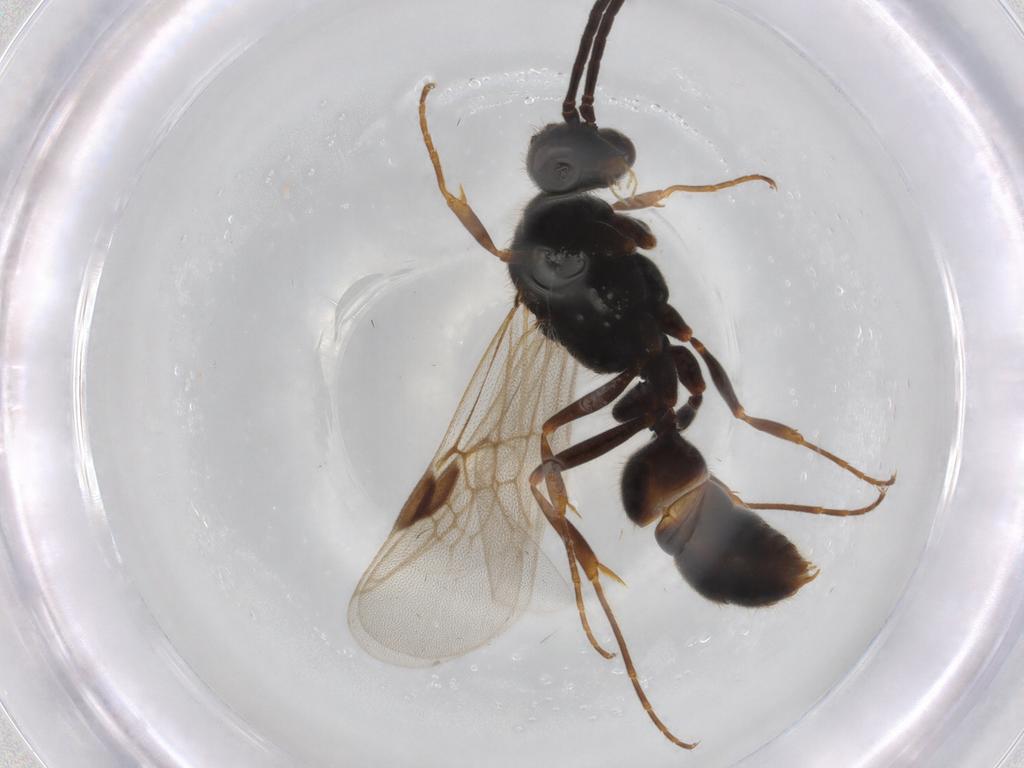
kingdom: Animalia
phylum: Arthropoda
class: Insecta
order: Hymenoptera
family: Formicidae
